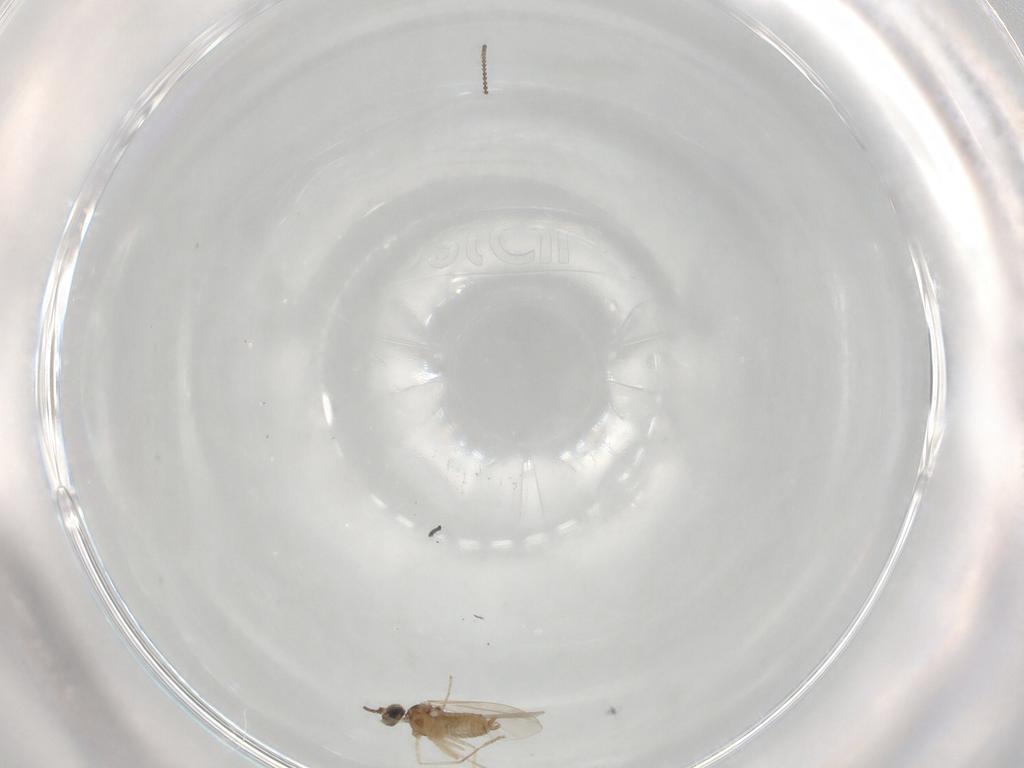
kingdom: Animalia
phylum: Arthropoda
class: Insecta
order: Diptera
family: Cecidomyiidae
